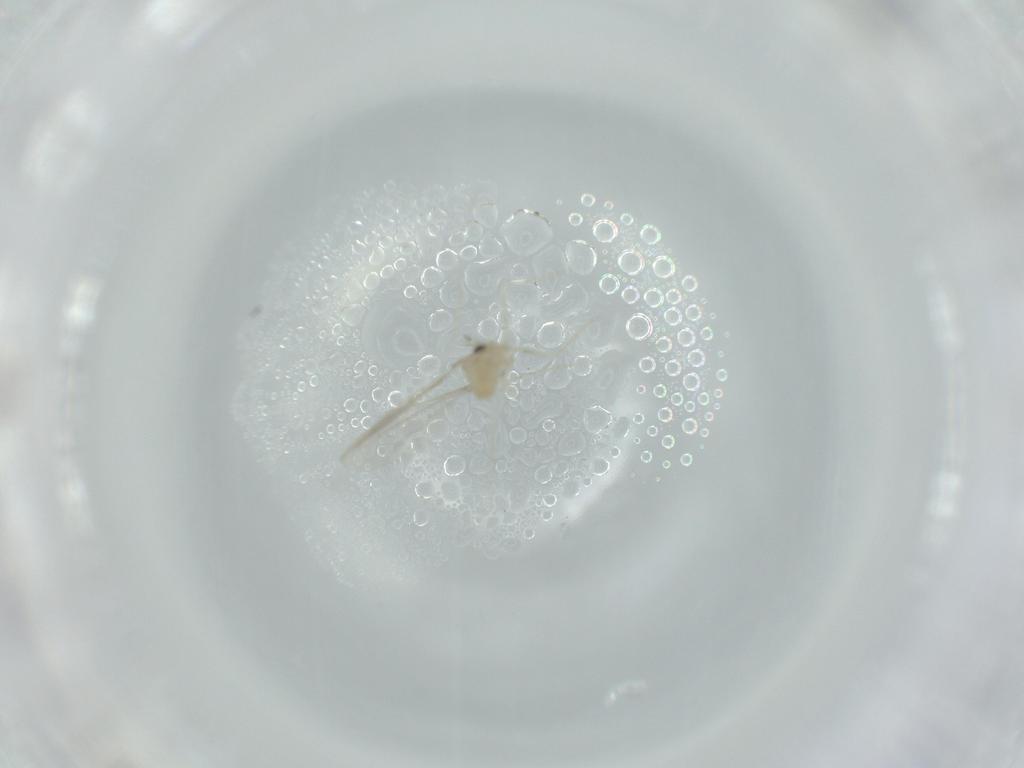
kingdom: Animalia
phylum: Arthropoda
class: Insecta
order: Diptera
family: Cecidomyiidae
